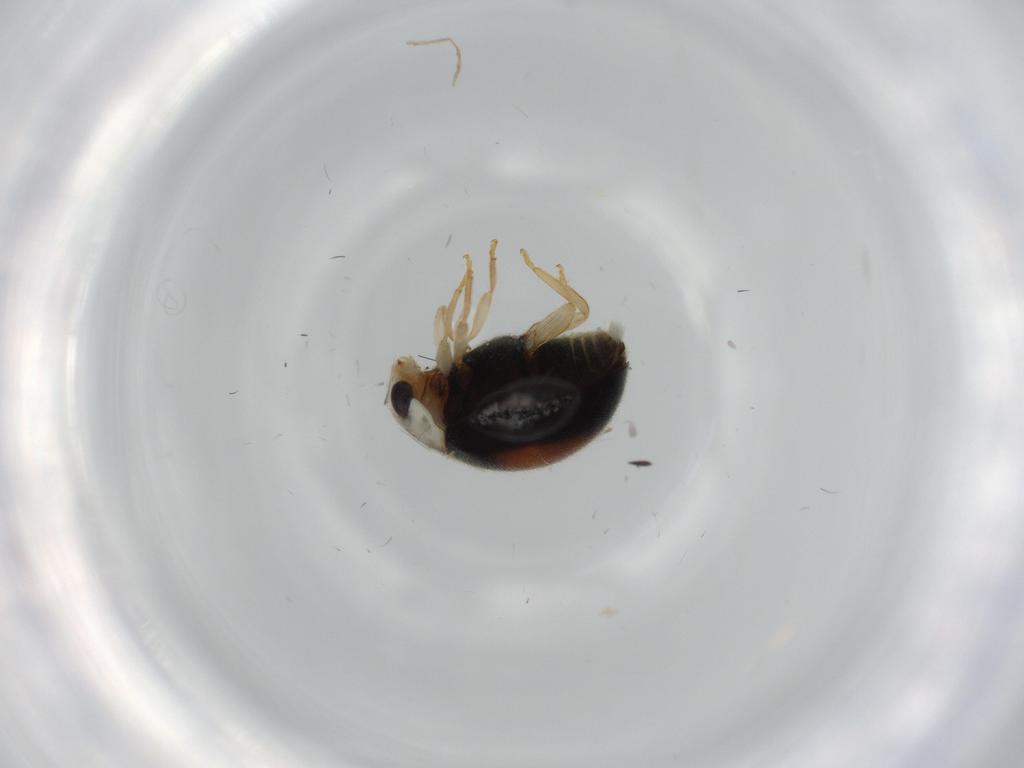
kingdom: Animalia
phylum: Arthropoda
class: Insecta
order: Coleoptera
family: Coccinellidae
